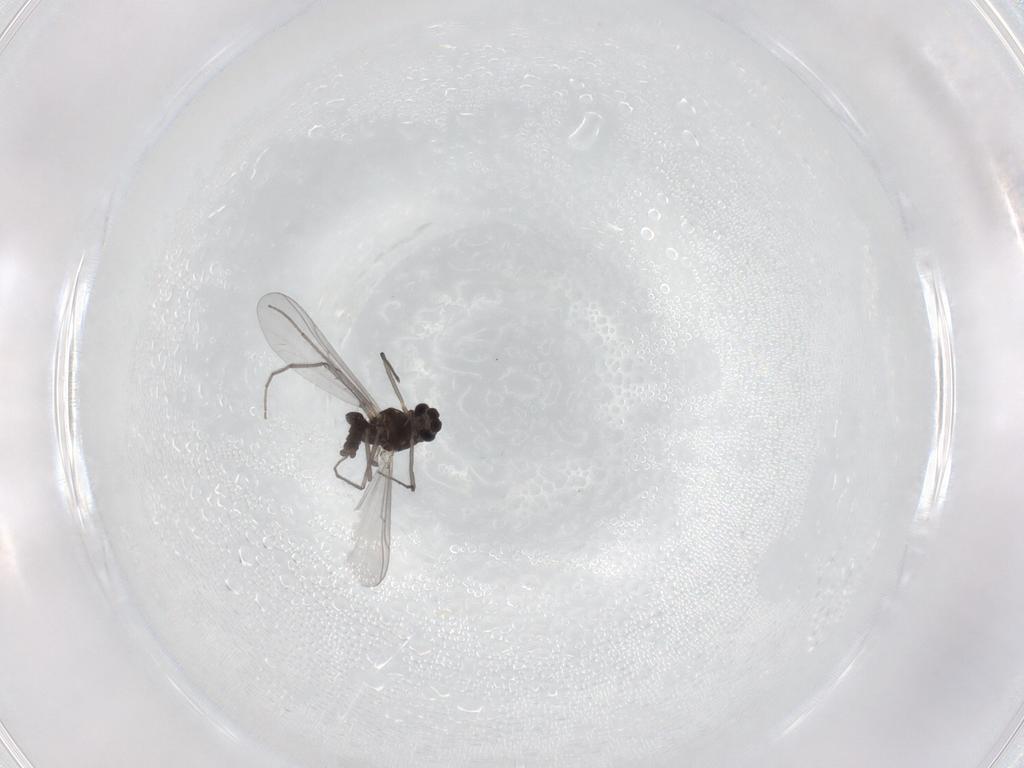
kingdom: Animalia
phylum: Arthropoda
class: Insecta
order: Diptera
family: Chironomidae
